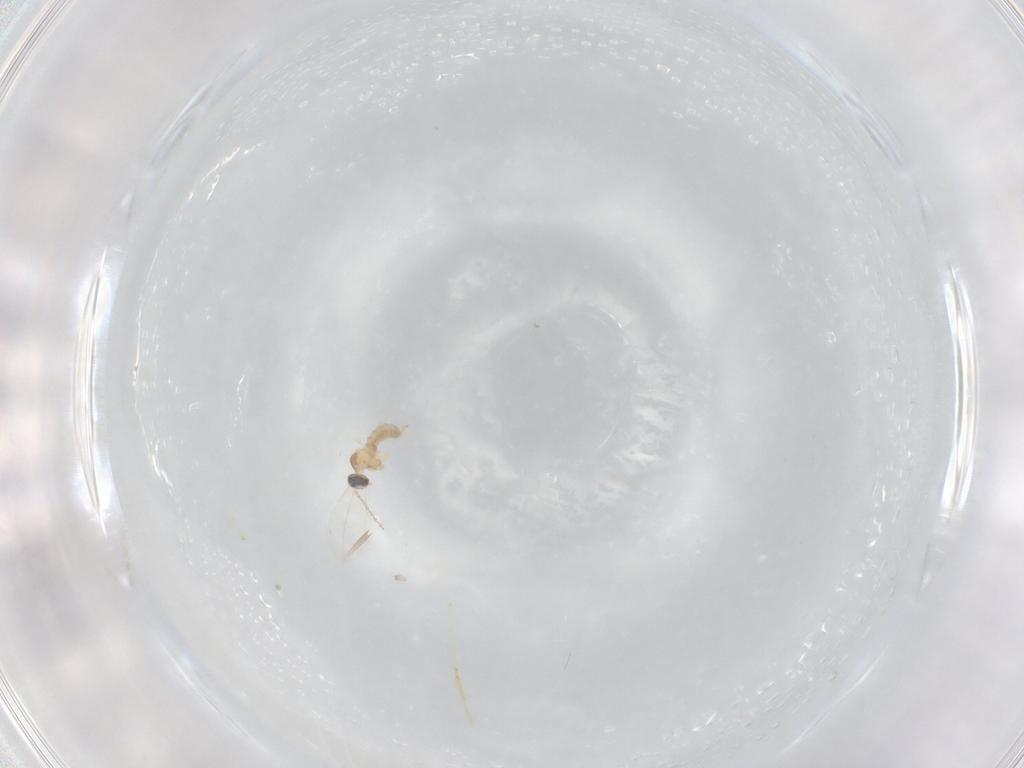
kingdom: Animalia
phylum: Arthropoda
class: Insecta
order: Diptera
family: Cecidomyiidae
